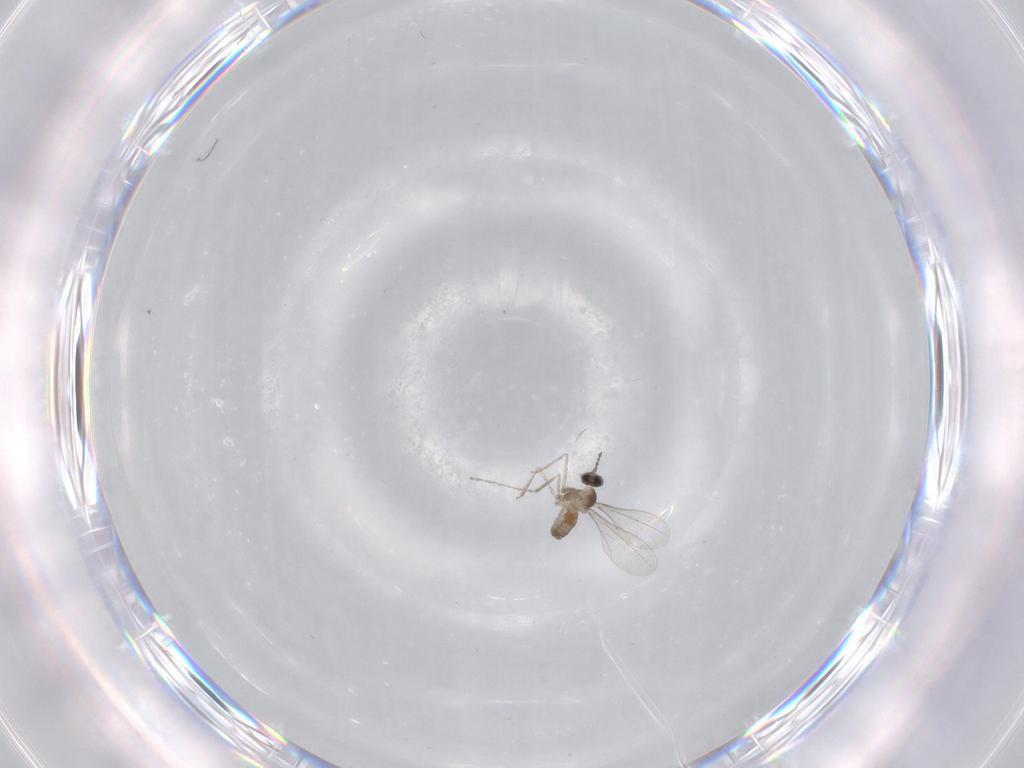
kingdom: Animalia
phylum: Arthropoda
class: Insecta
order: Diptera
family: Cecidomyiidae
